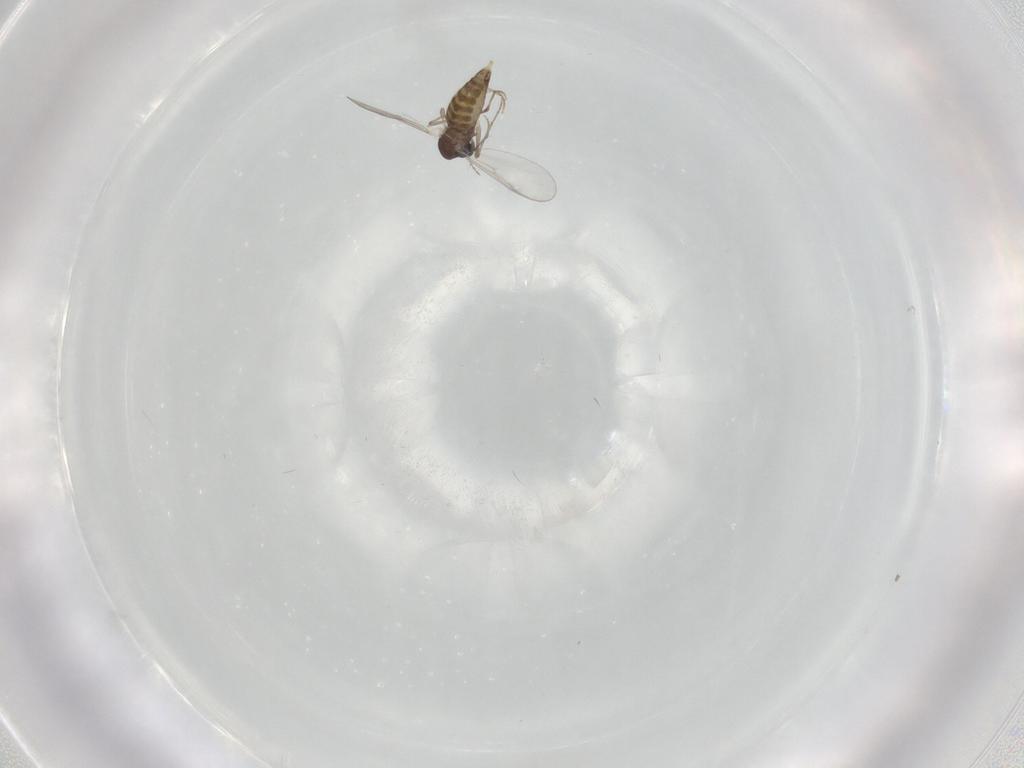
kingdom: Animalia
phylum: Arthropoda
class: Insecta
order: Diptera
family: Chironomidae
